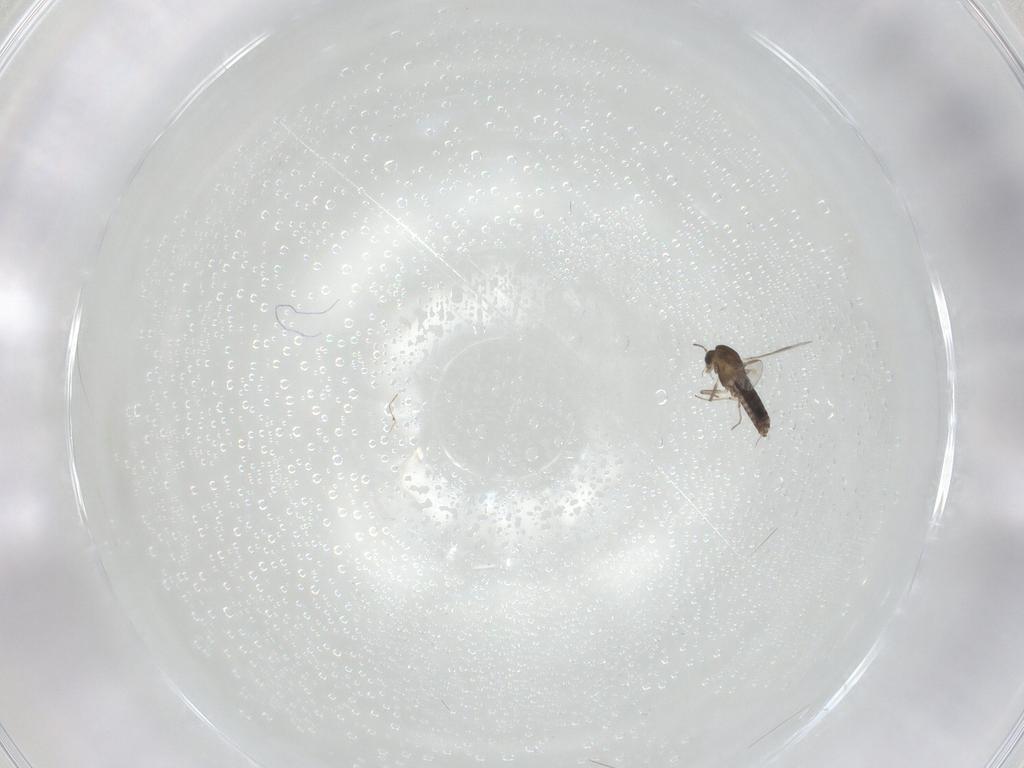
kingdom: Animalia
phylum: Arthropoda
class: Insecta
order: Diptera
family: Chironomidae
